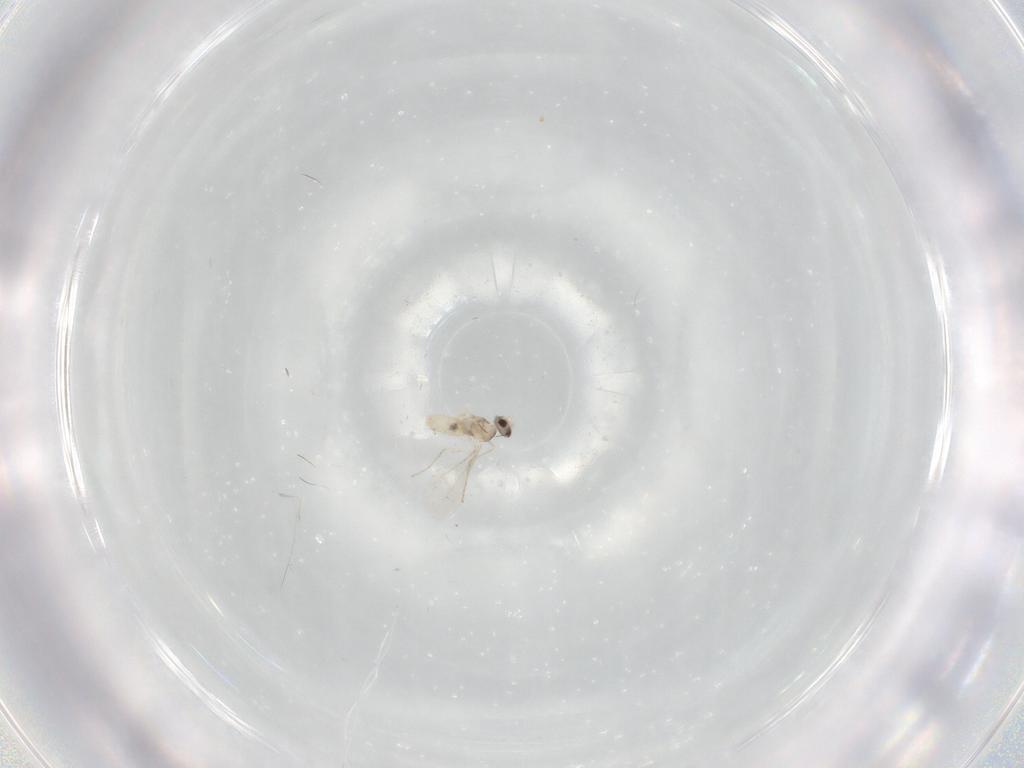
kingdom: Animalia
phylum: Arthropoda
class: Insecta
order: Diptera
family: Cecidomyiidae
